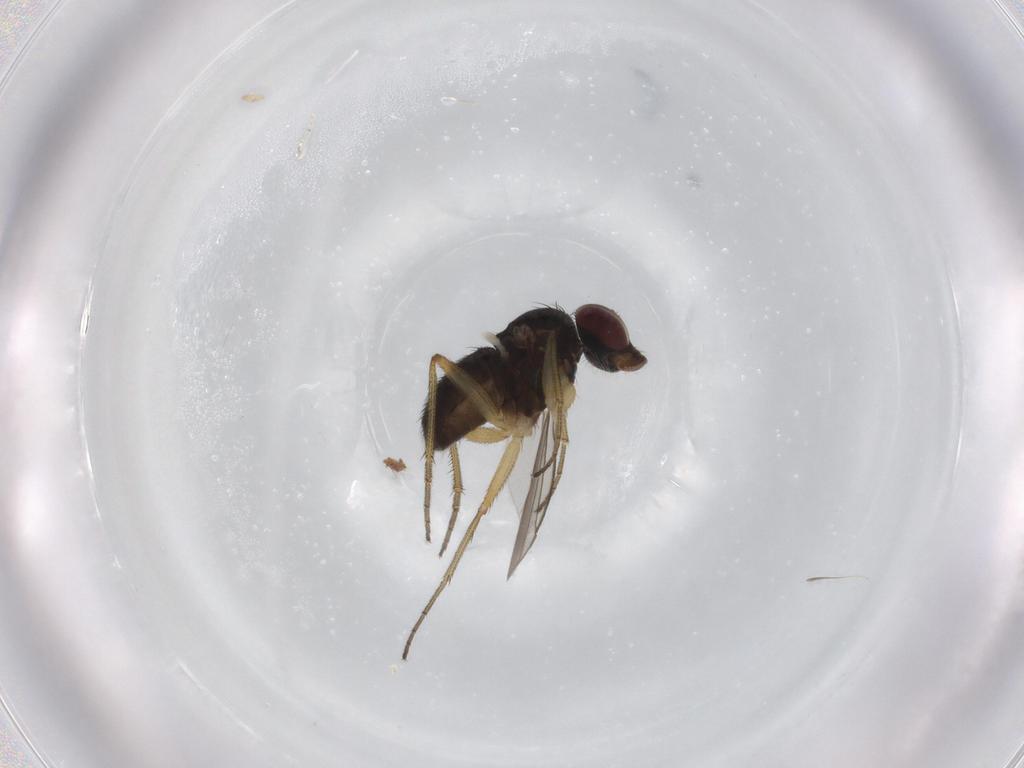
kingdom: Animalia
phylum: Arthropoda
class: Insecta
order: Diptera
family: Dolichopodidae
